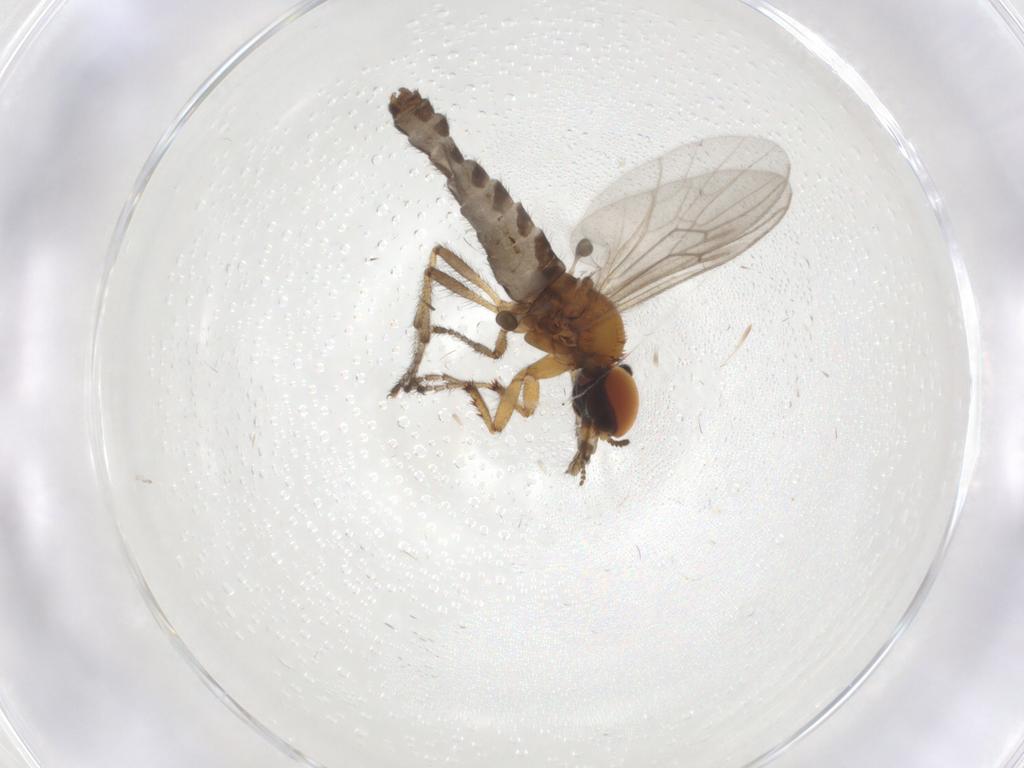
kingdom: Animalia
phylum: Arthropoda
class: Insecta
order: Diptera
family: Bibionidae
